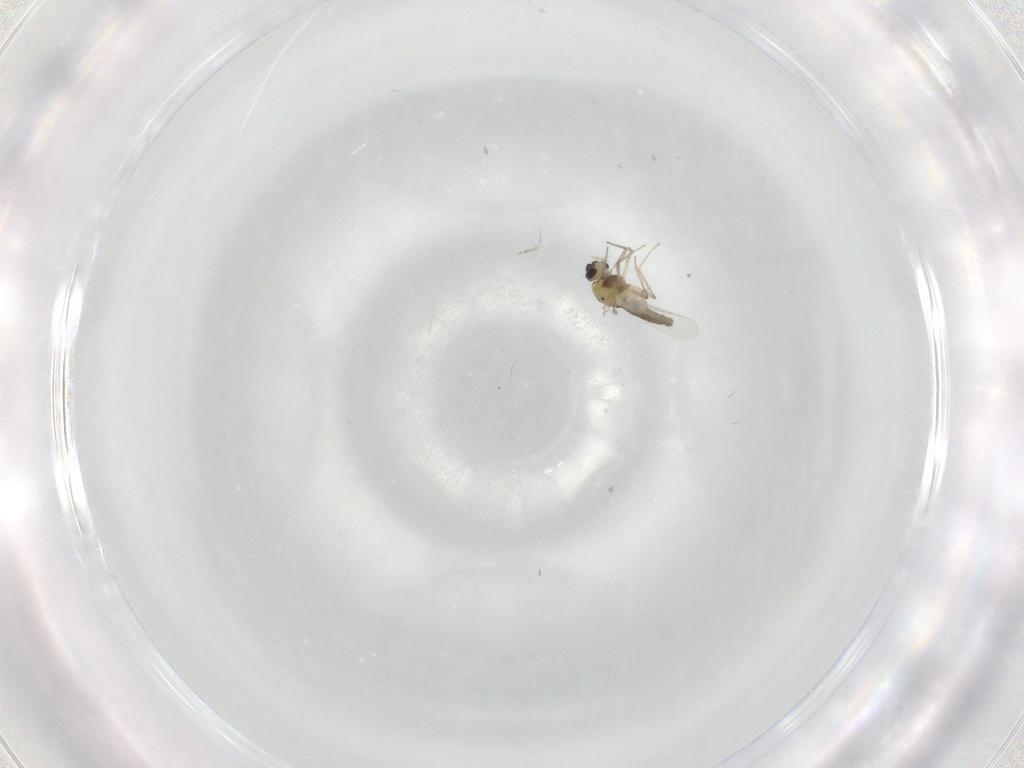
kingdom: Animalia
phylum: Arthropoda
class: Insecta
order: Diptera
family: Chironomidae
